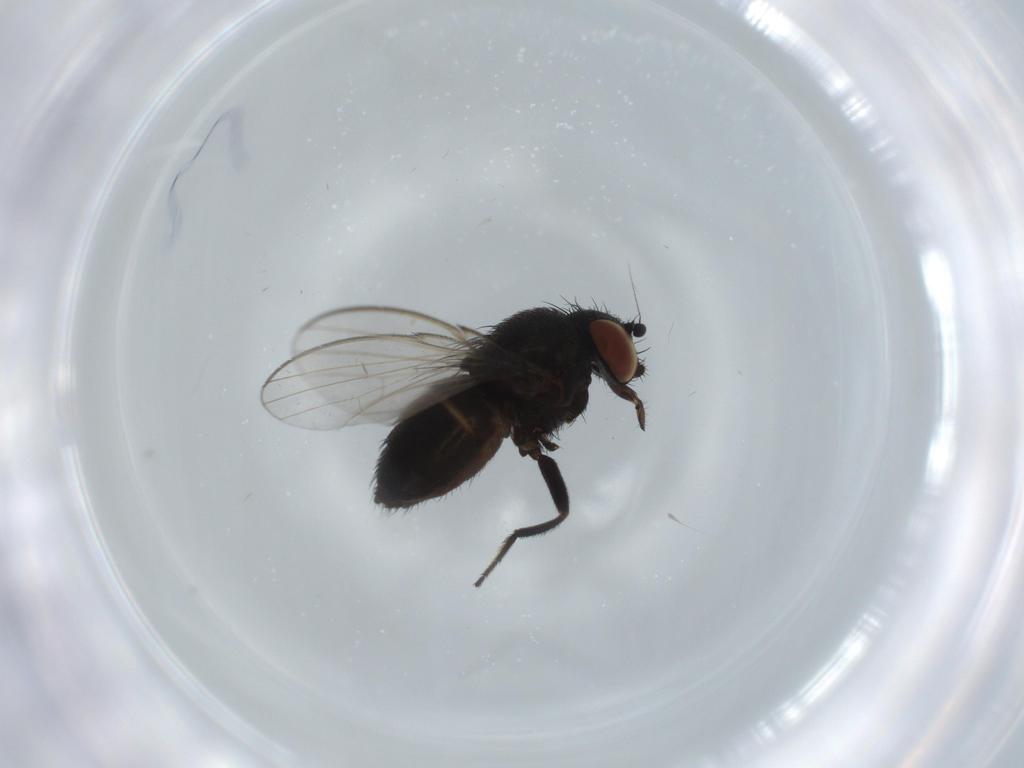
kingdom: Animalia
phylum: Arthropoda
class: Insecta
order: Diptera
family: Milichiidae
